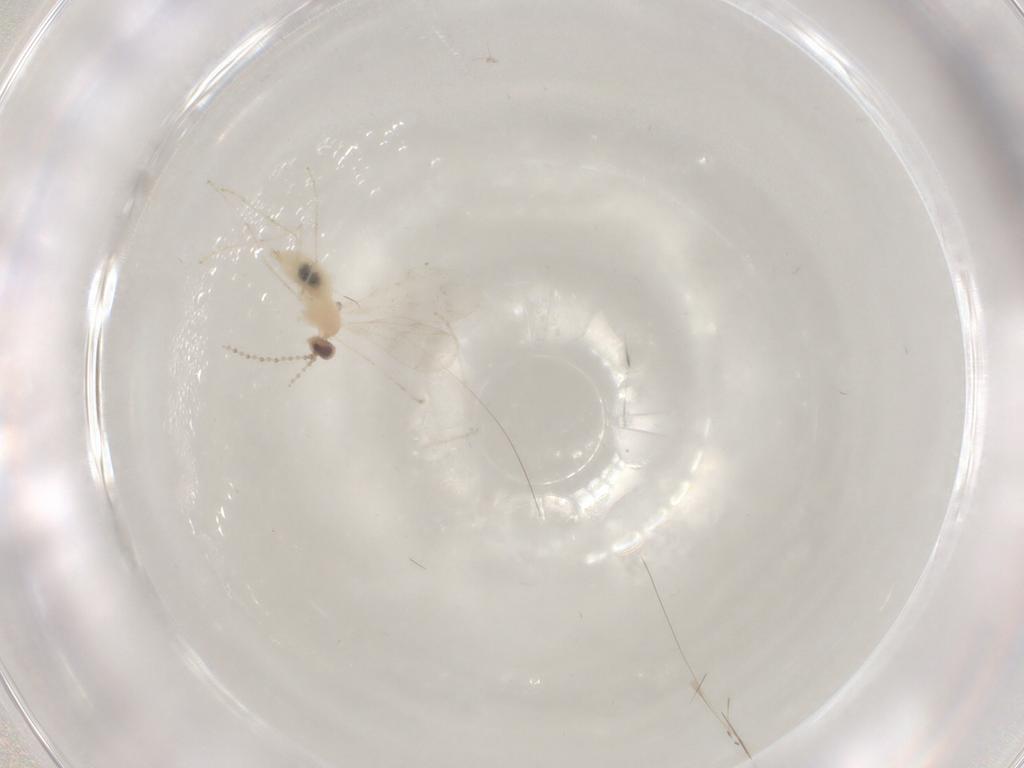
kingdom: Animalia
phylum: Arthropoda
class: Insecta
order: Diptera
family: Cecidomyiidae
